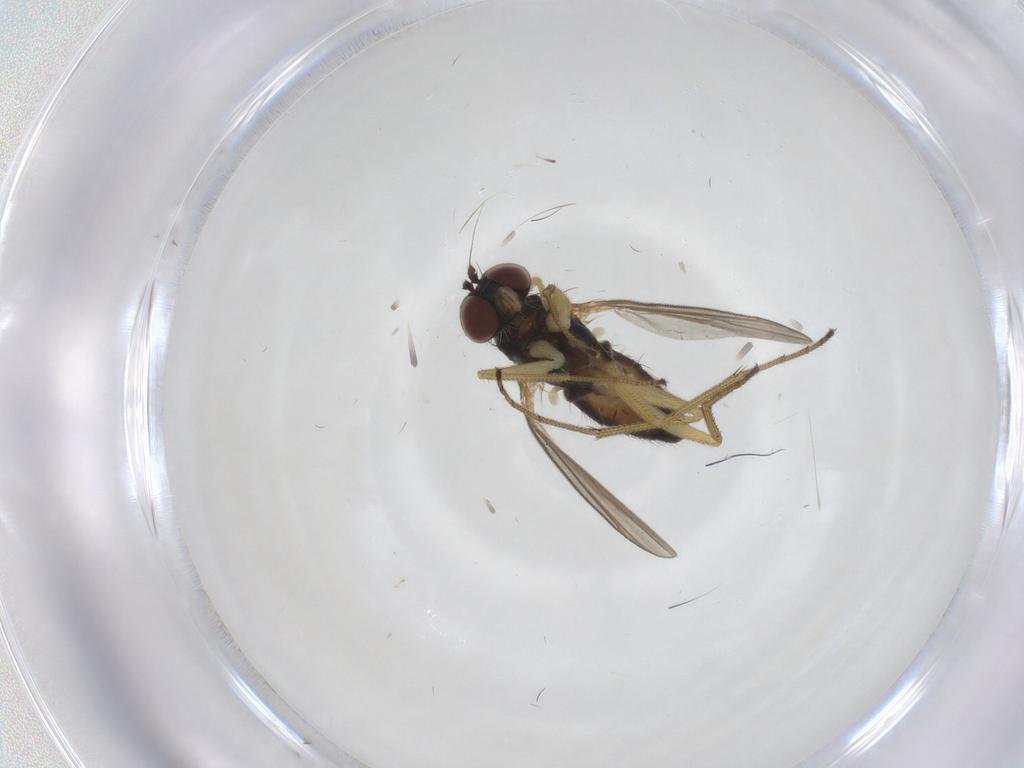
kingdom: Animalia
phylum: Arthropoda
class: Insecta
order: Diptera
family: Dolichopodidae
